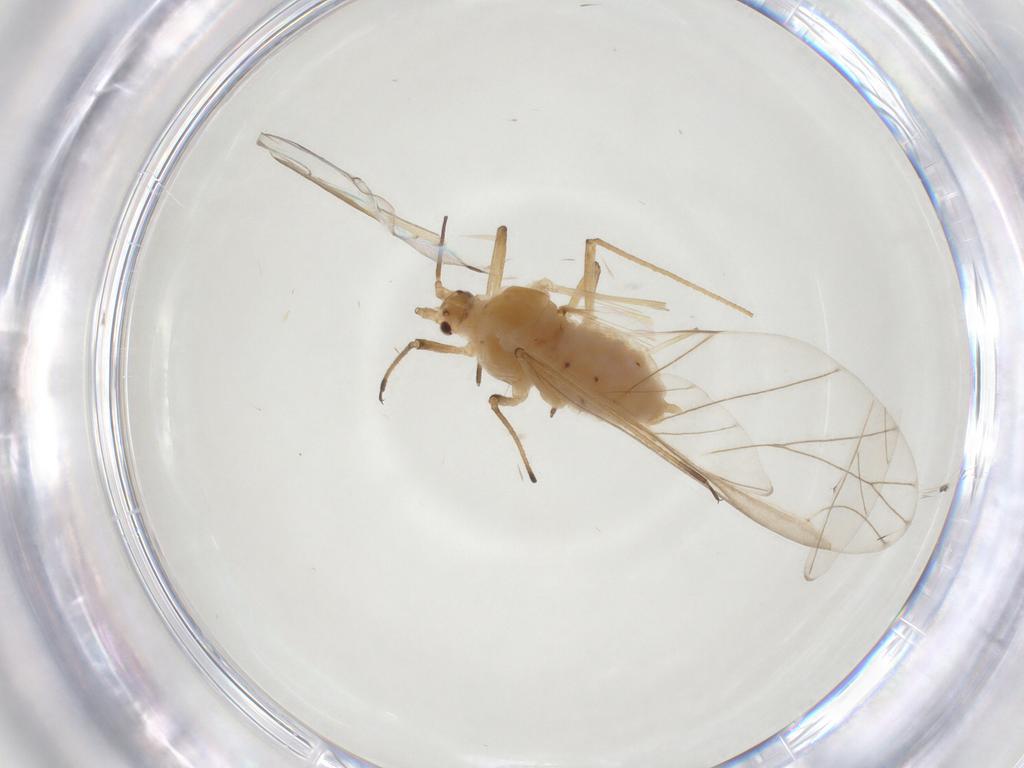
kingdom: Animalia
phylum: Arthropoda
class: Insecta
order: Hemiptera
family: Aphididae
